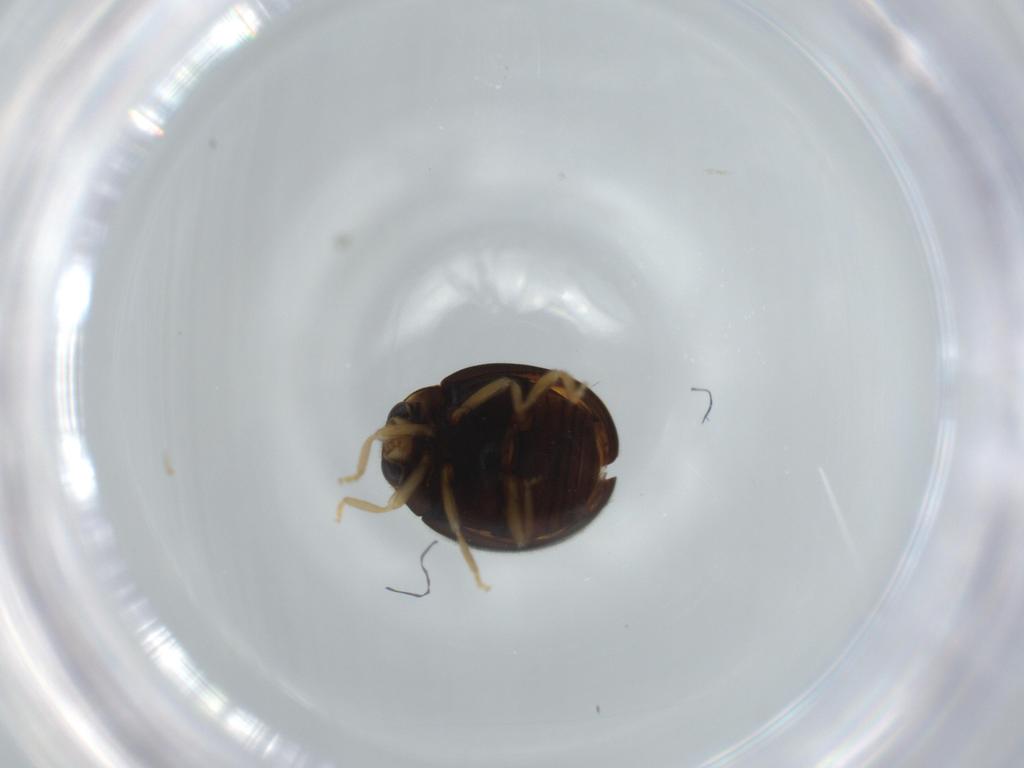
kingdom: Animalia
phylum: Arthropoda
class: Insecta
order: Coleoptera
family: Coccinellidae
